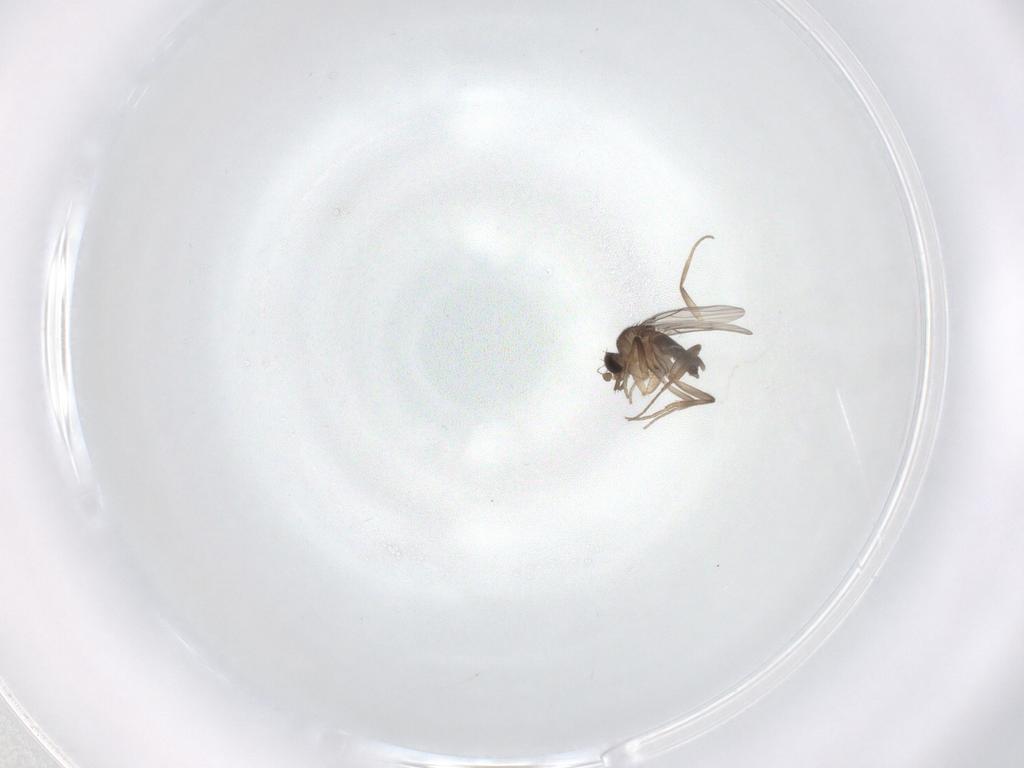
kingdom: Animalia
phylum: Arthropoda
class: Insecta
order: Diptera
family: Phoridae
